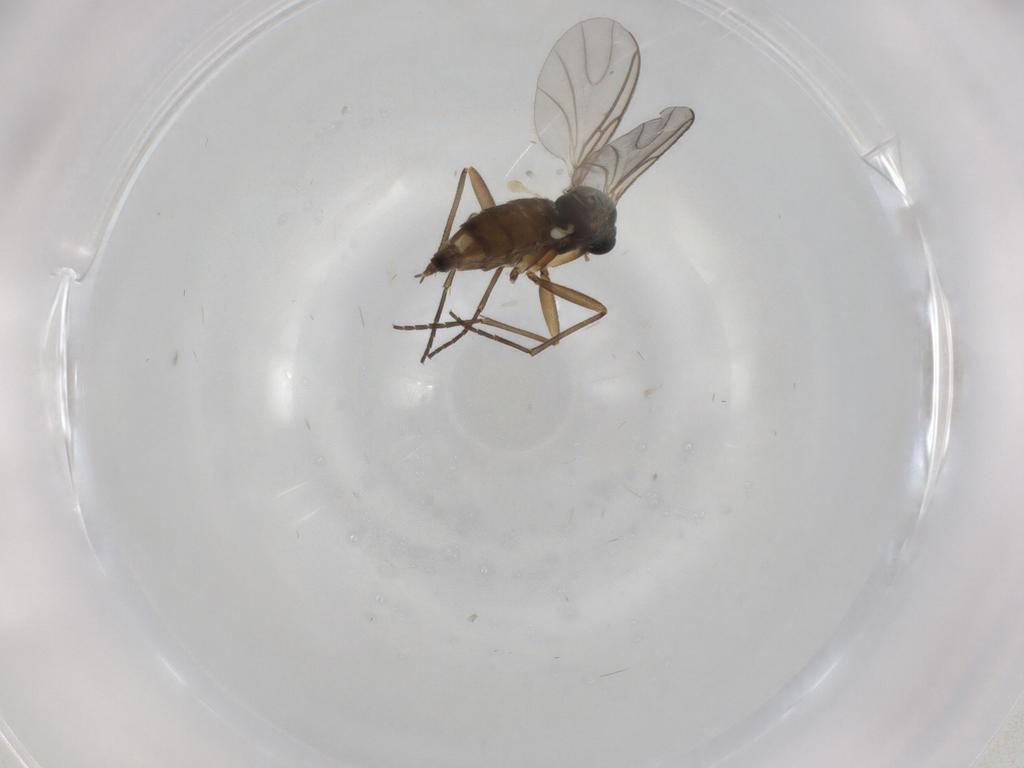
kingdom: Animalia
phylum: Arthropoda
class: Insecta
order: Diptera
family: Sciaridae
